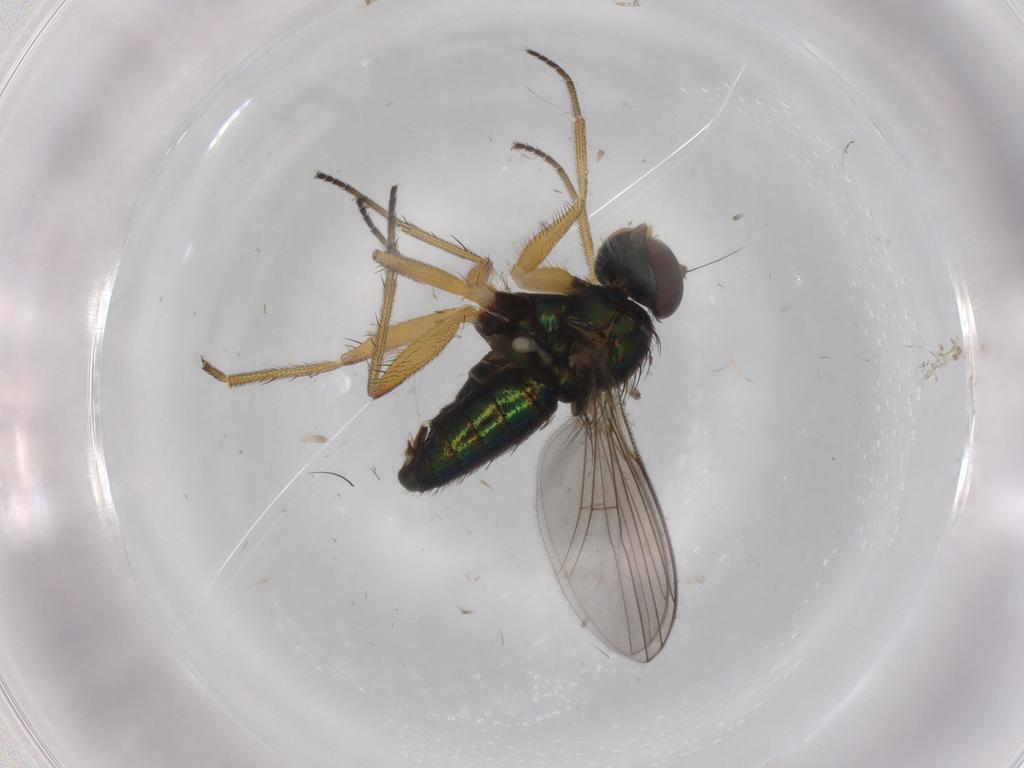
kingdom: Animalia
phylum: Arthropoda
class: Insecta
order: Diptera
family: Dolichopodidae
